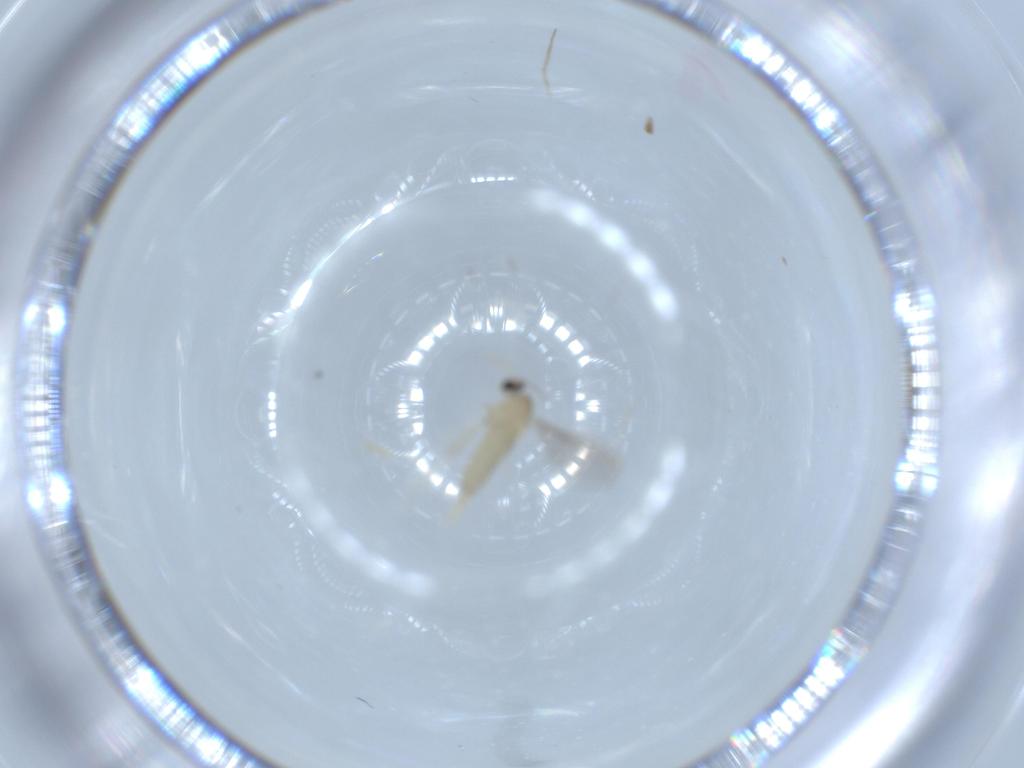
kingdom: Animalia
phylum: Arthropoda
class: Insecta
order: Diptera
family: Cecidomyiidae
